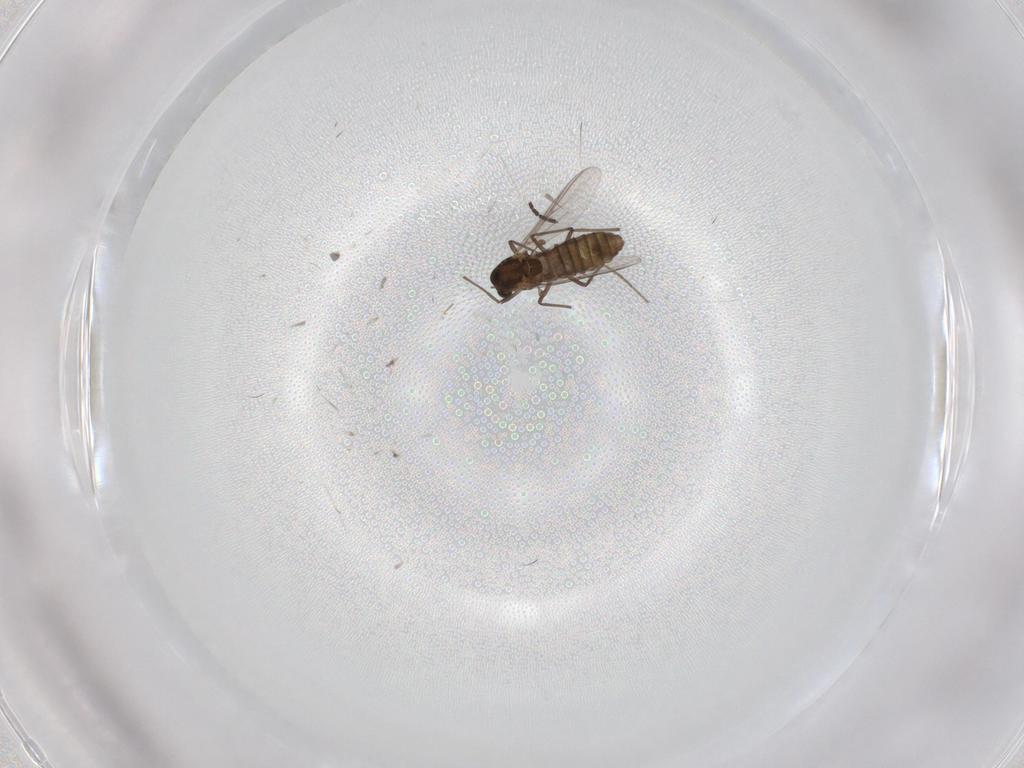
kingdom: Animalia
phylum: Arthropoda
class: Insecta
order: Diptera
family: Chironomidae
